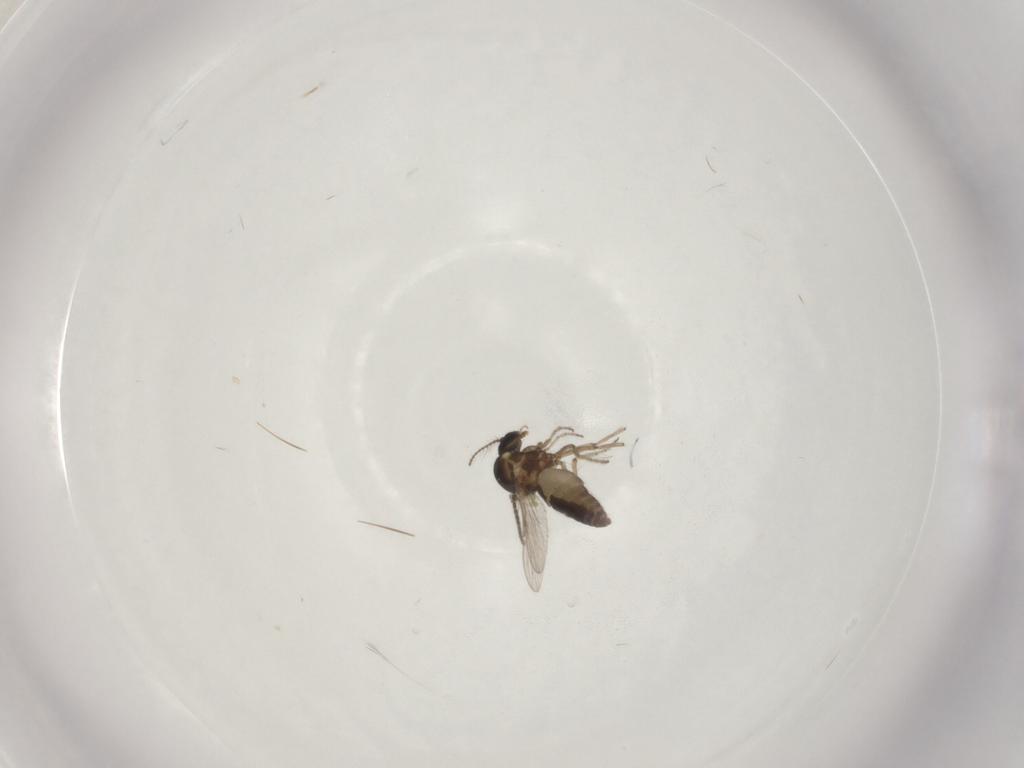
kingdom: Animalia
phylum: Arthropoda
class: Insecta
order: Diptera
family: Ceratopogonidae
